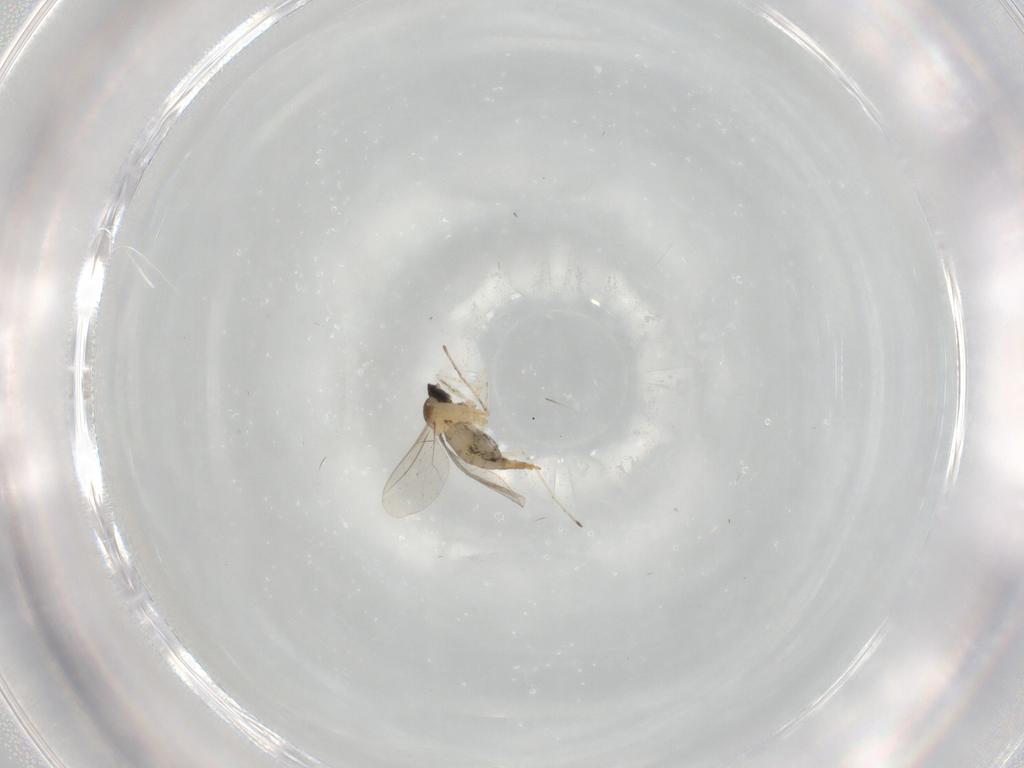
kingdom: Animalia
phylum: Arthropoda
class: Insecta
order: Diptera
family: Cecidomyiidae
